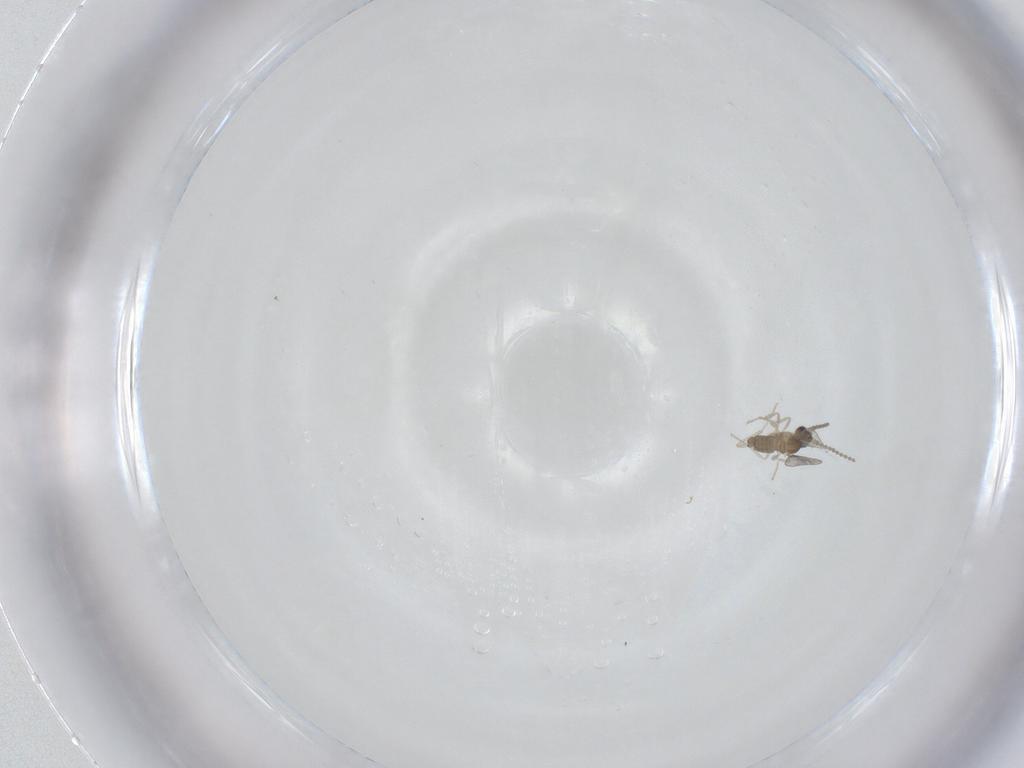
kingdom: Animalia
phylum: Arthropoda
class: Insecta
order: Diptera
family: Cecidomyiidae
